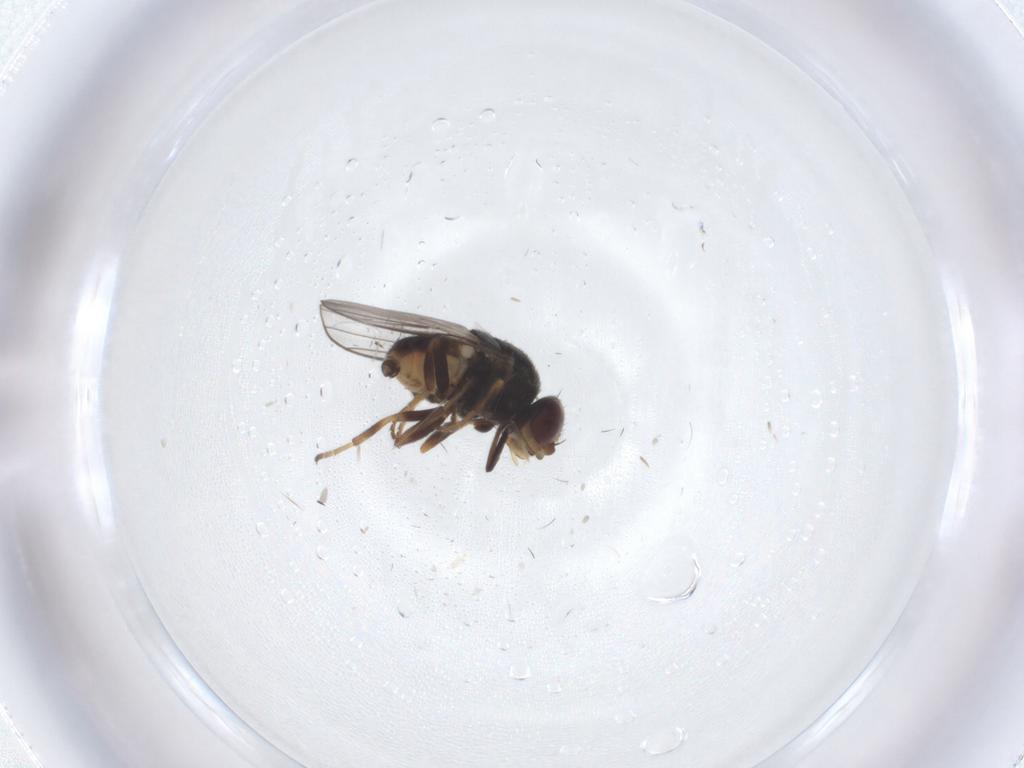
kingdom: Animalia
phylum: Arthropoda
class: Insecta
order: Diptera
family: Chloropidae
